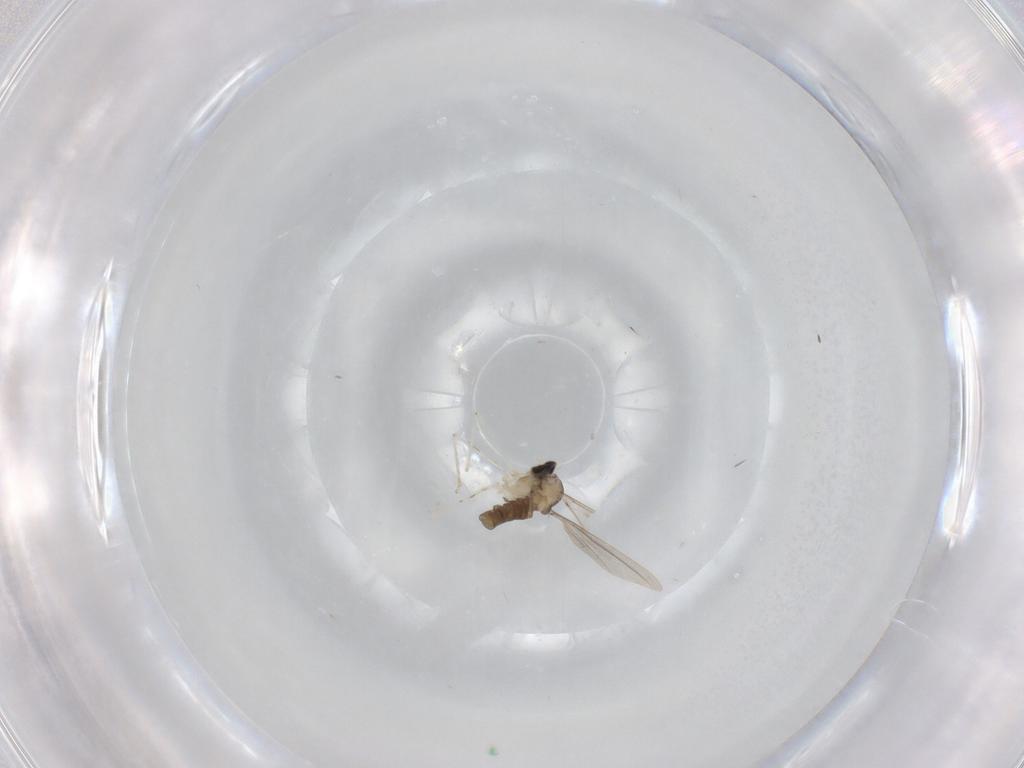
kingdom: Animalia
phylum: Arthropoda
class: Insecta
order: Diptera
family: Cecidomyiidae
